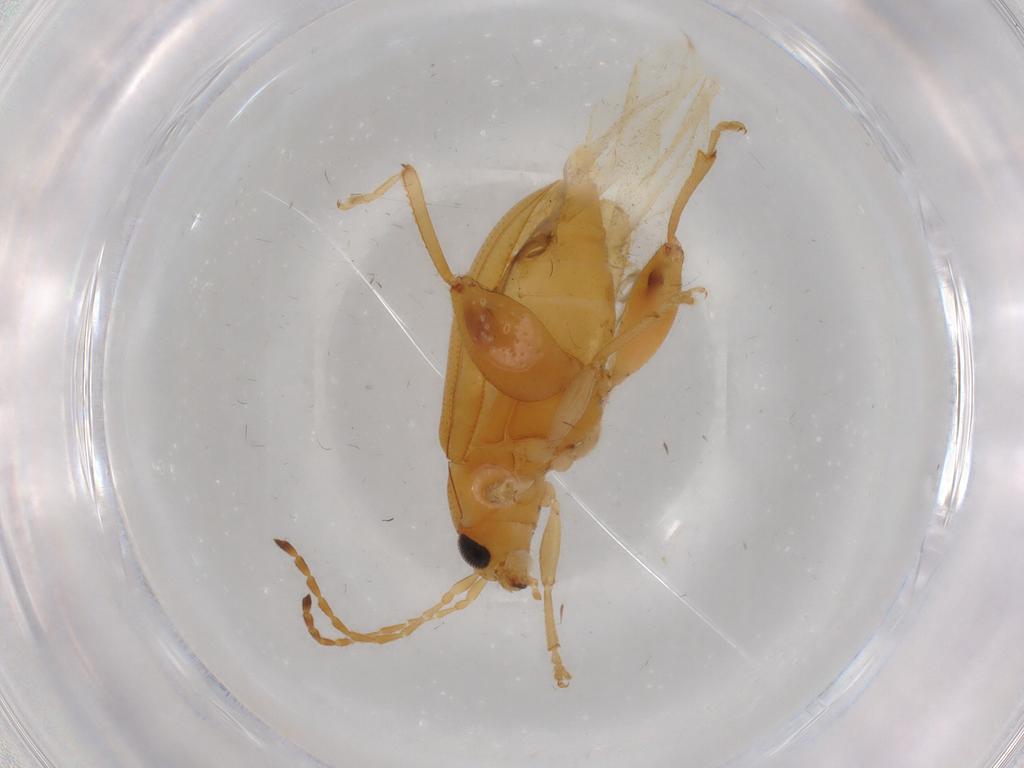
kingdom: Animalia
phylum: Arthropoda
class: Insecta
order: Coleoptera
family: Chrysomelidae
